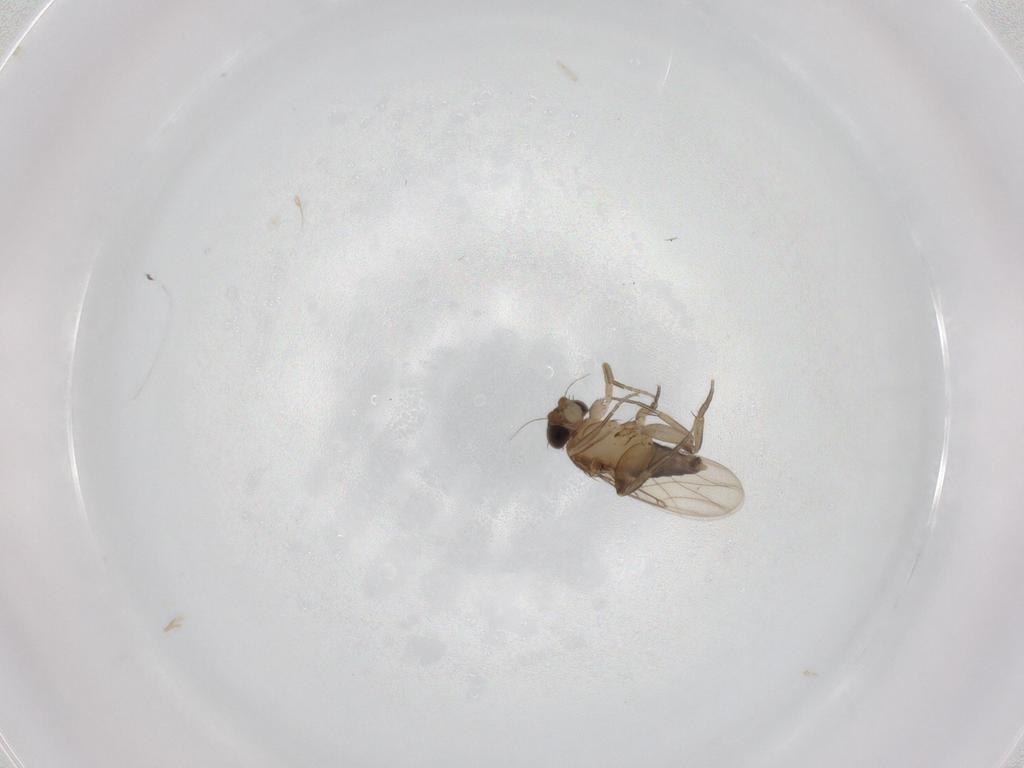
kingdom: Animalia
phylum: Arthropoda
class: Insecta
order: Diptera
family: Phoridae
